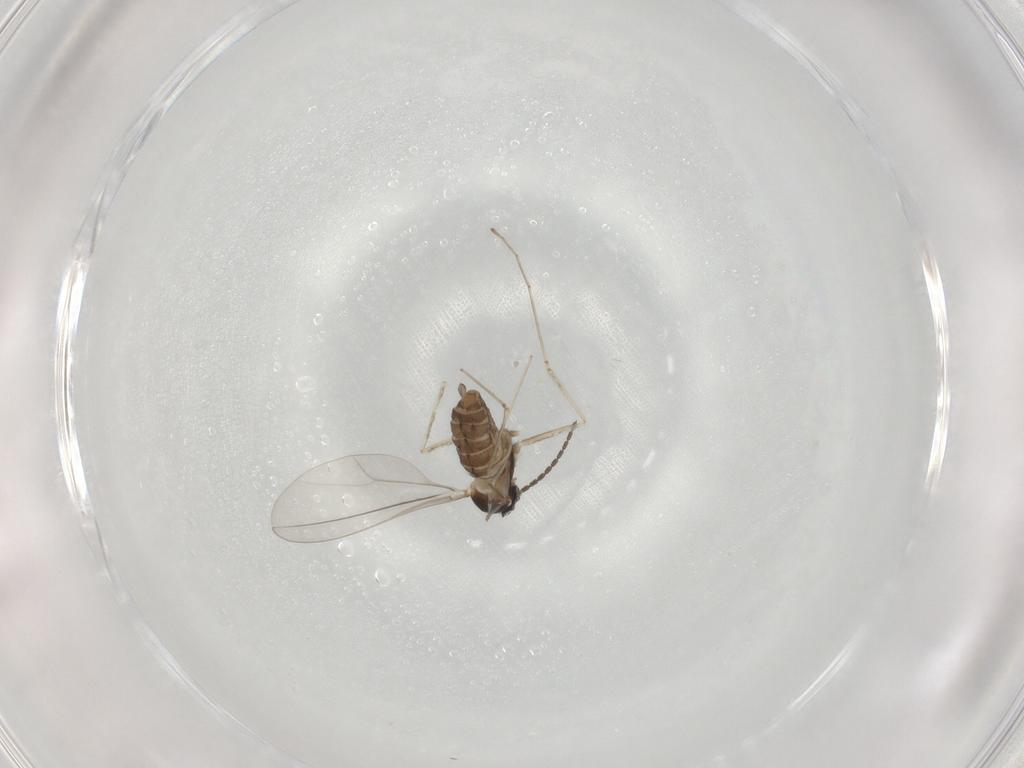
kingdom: Animalia
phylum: Arthropoda
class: Insecta
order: Diptera
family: Cecidomyiidae
